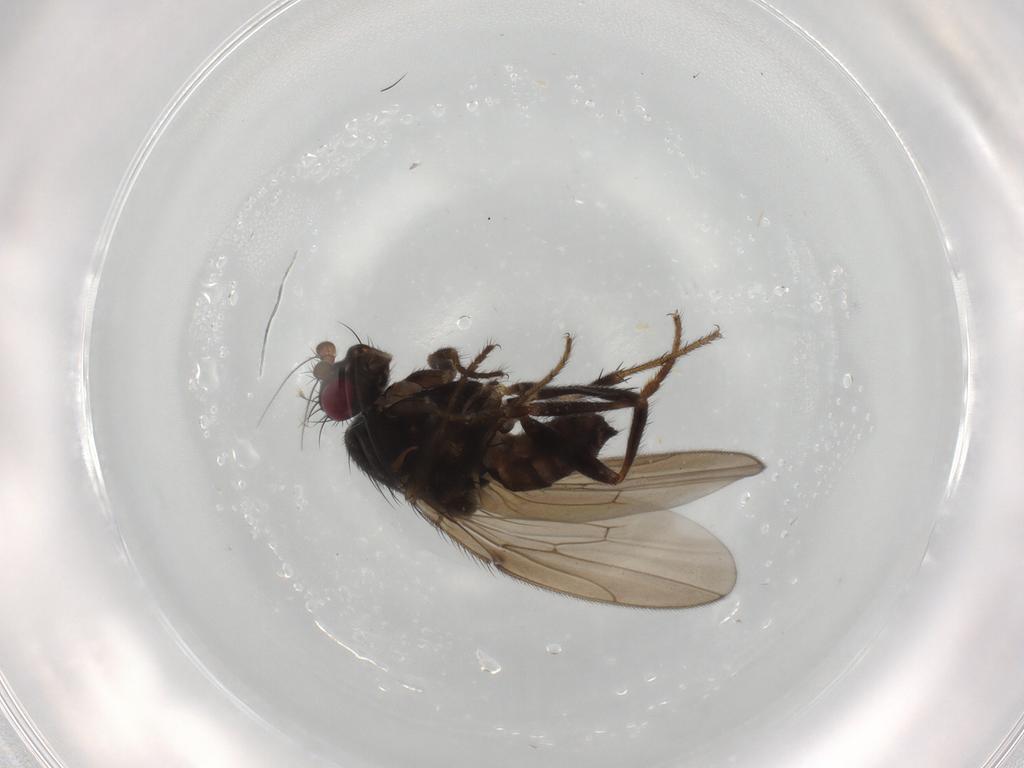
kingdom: Animalia
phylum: Arthropoda
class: Insecta
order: Diptera
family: Sphaeroceridae
